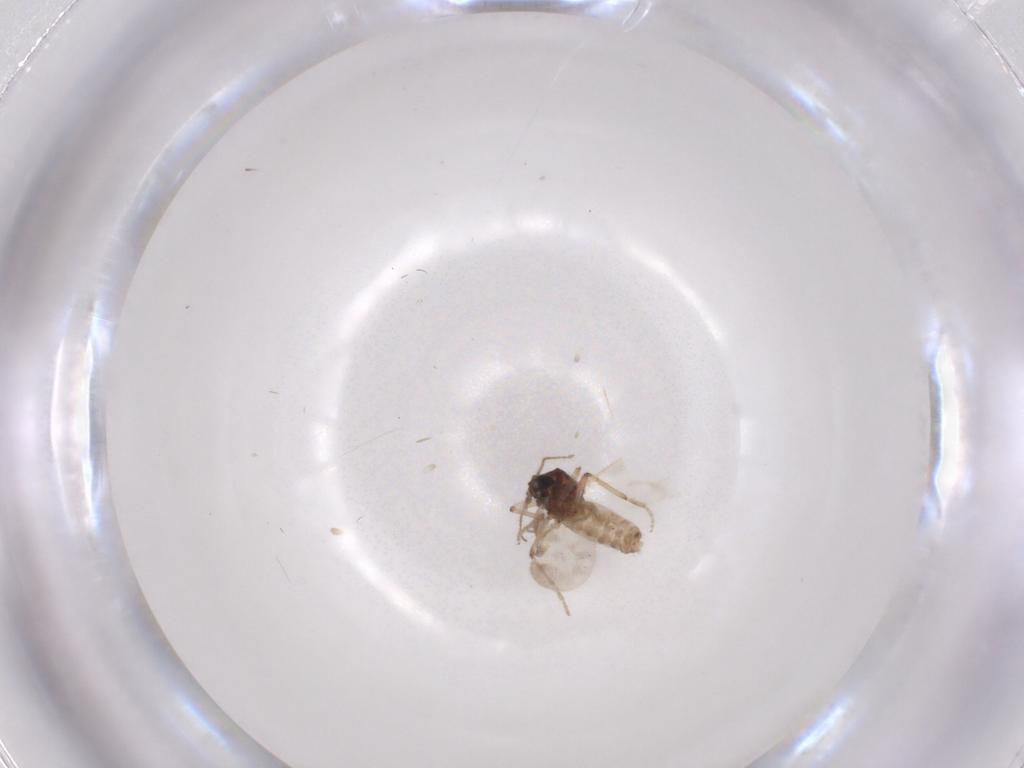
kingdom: Animalia
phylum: Arthropoda
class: Insecta
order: Diptera
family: Ceratopogonidae
